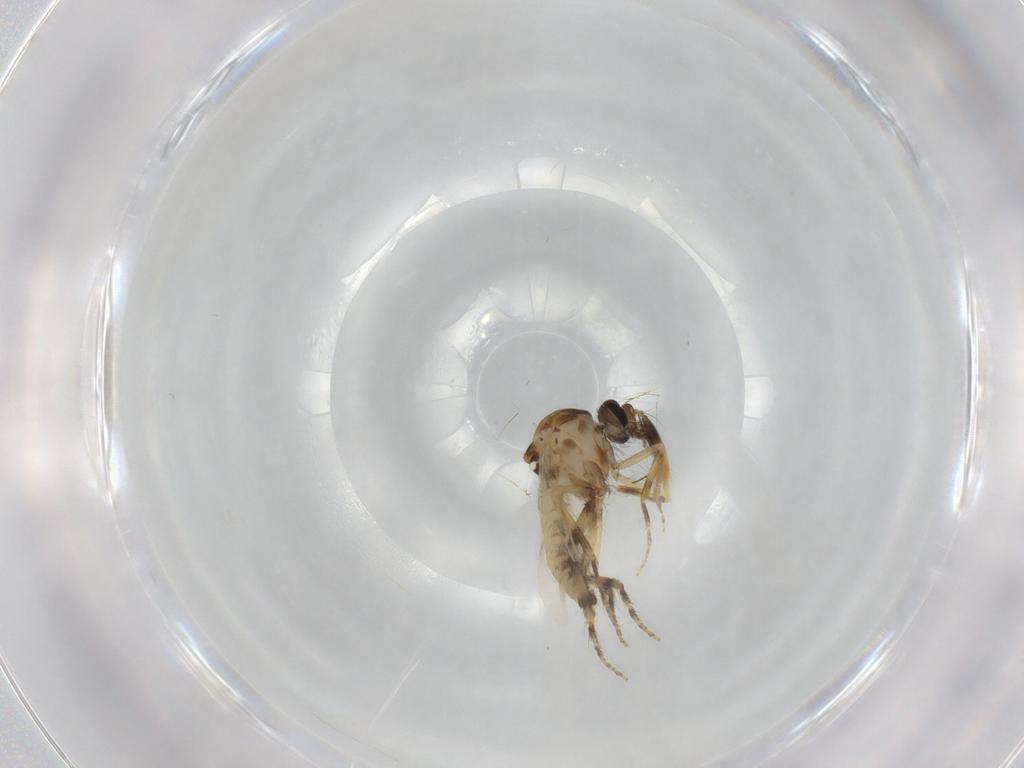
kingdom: Animalia
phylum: Arthropoda
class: Insecta
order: Diptera
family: Ceratopogonidae
